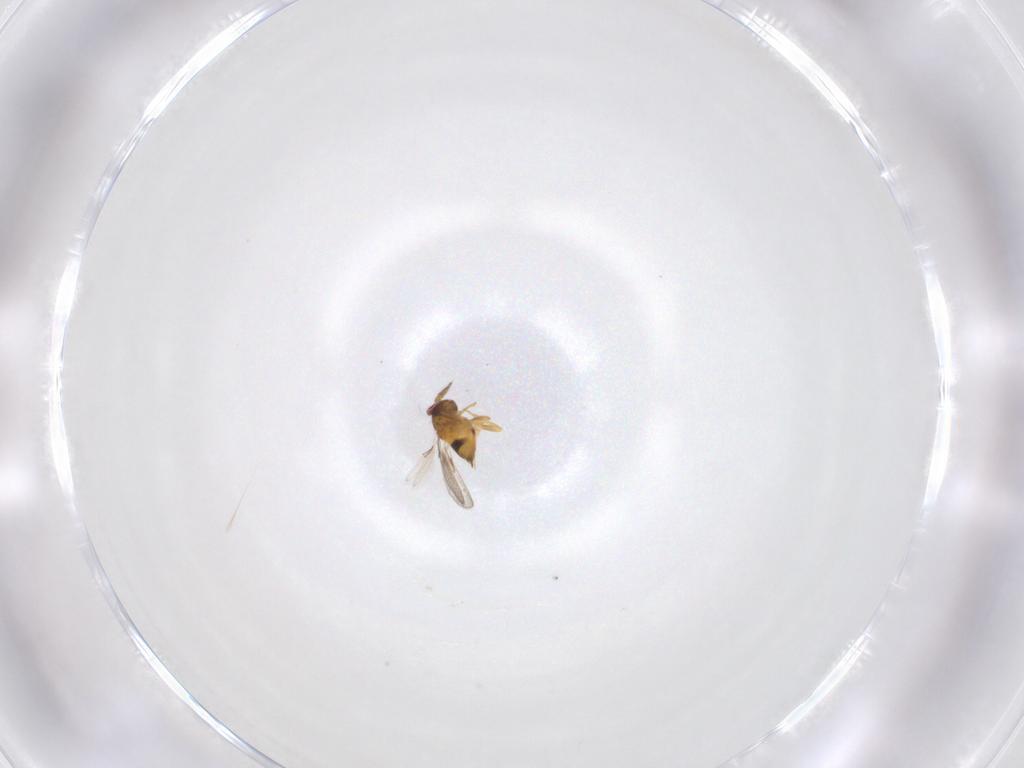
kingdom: Animalia
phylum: Arthropoda
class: Insecta
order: Hymenoptera
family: Trichogrammatidae
